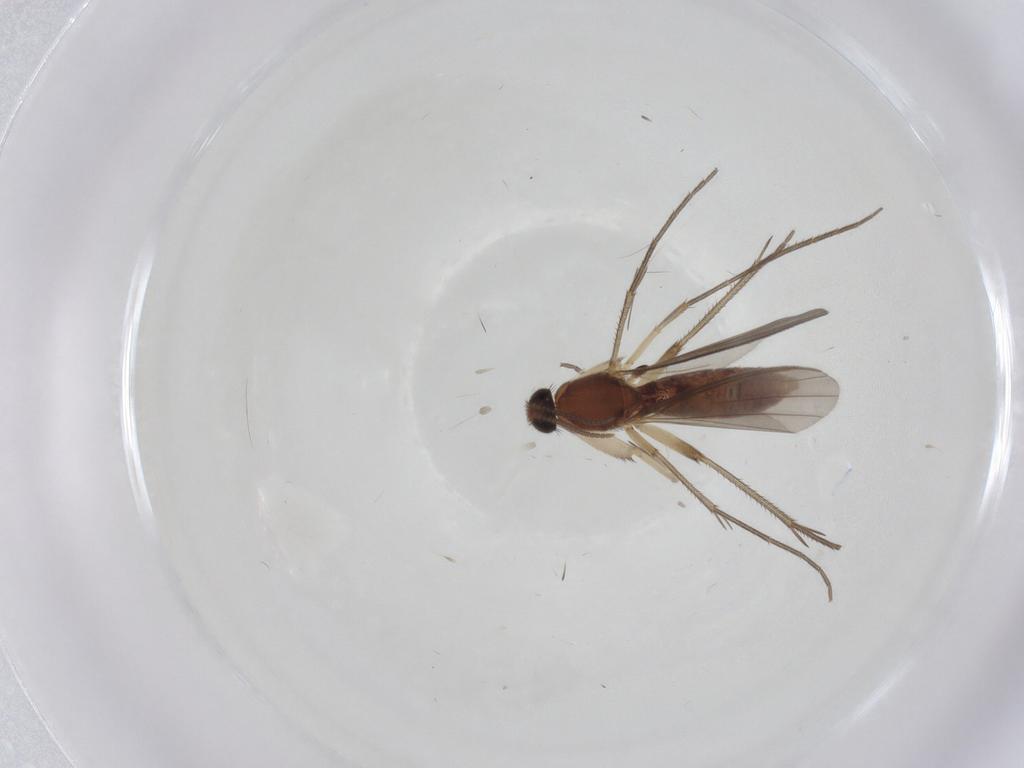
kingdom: Animalia
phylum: Arthropoda
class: Insecta
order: Diptera
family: Mycetophilidae
